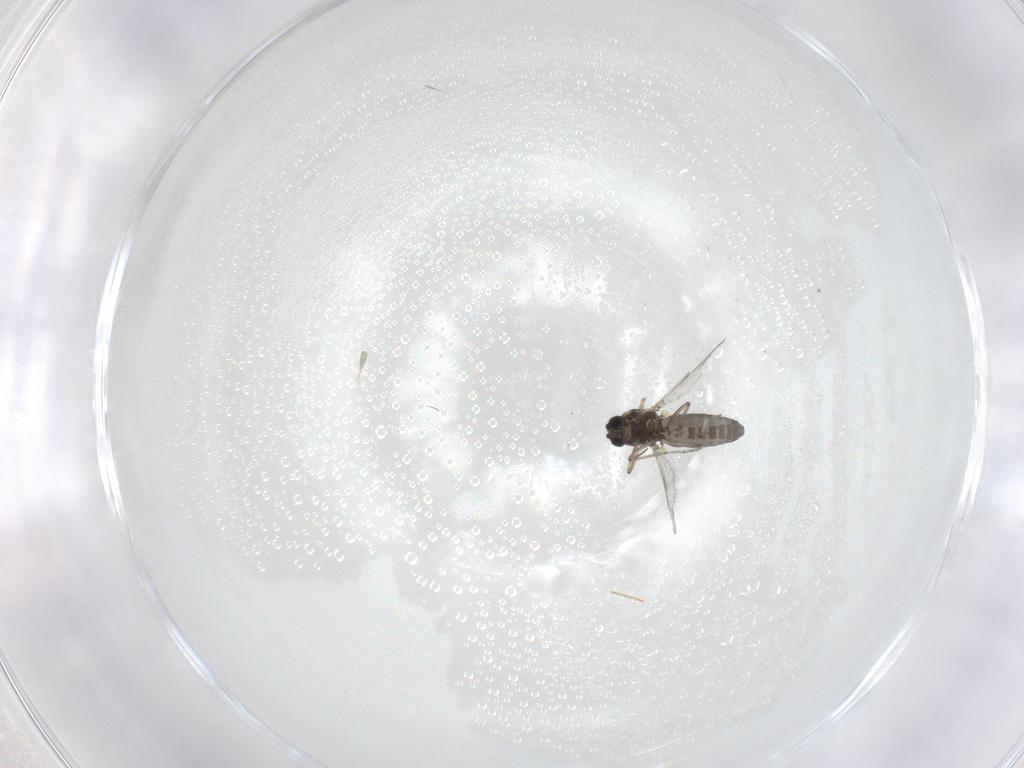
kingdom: Animalia
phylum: Arthropoda
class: Insecta
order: Diptera
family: Ceratopogonidae
